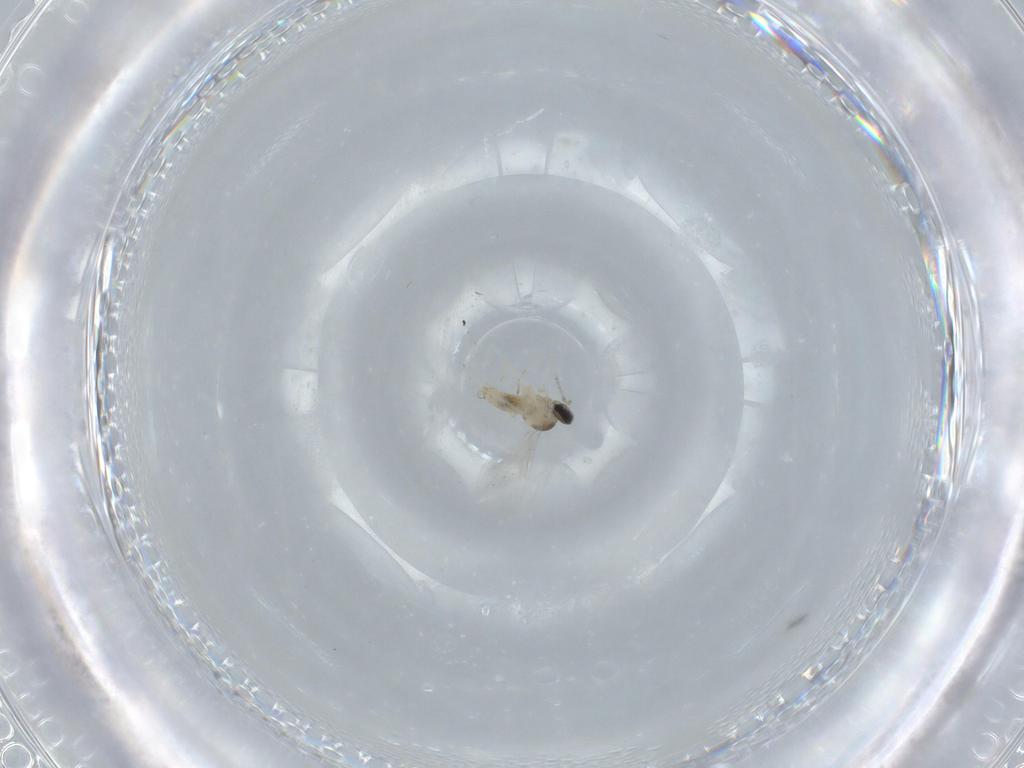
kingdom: Animalia
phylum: Arthropoda
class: Insecta
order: Diptera
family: Cecidomyiidae
